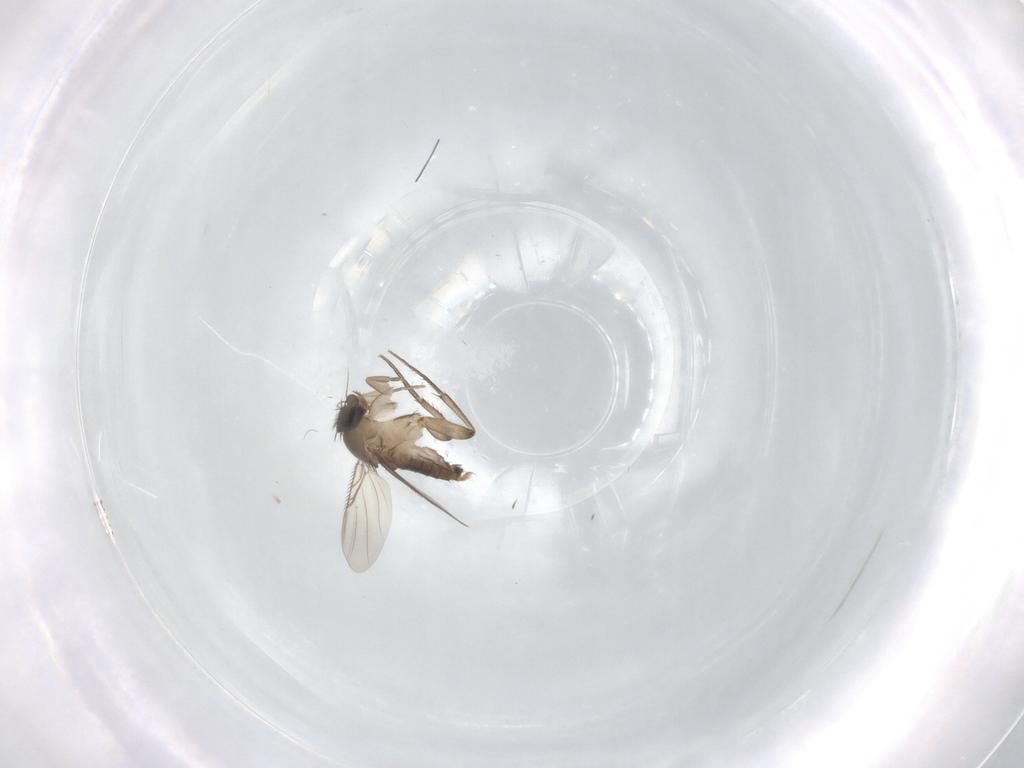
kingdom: Animalia
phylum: Arthropoda
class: Insecta
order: Diptera
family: Phoridae
